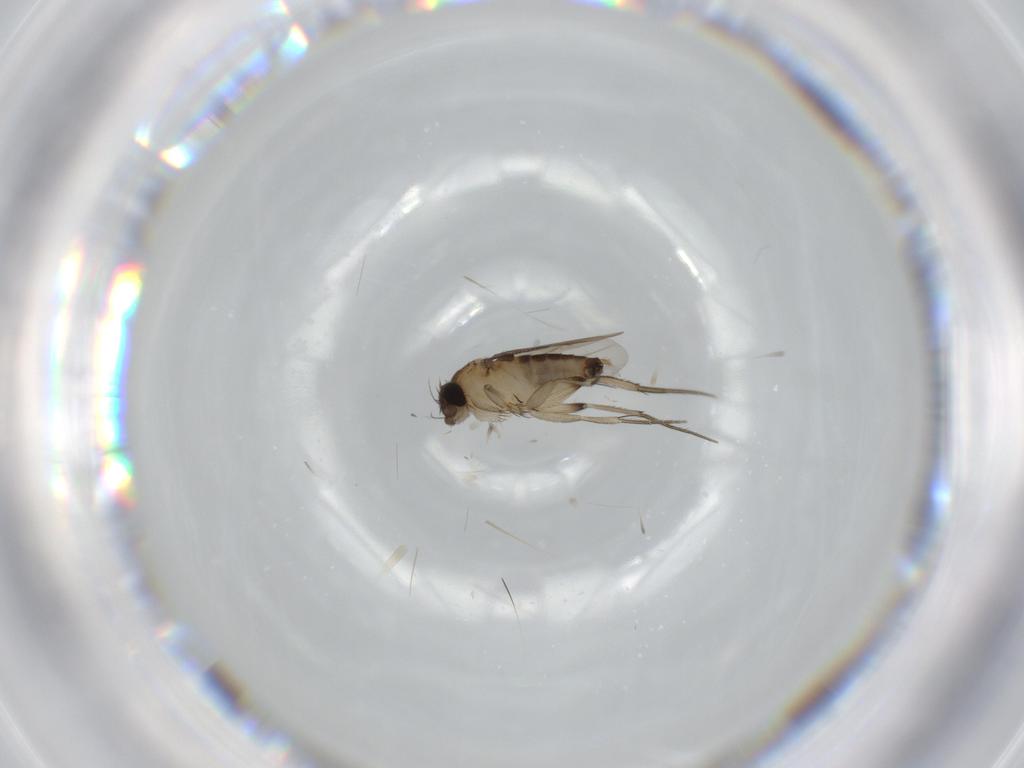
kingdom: Animalia
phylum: Arthropoda
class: Insecta
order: Diptera
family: Phoridae
